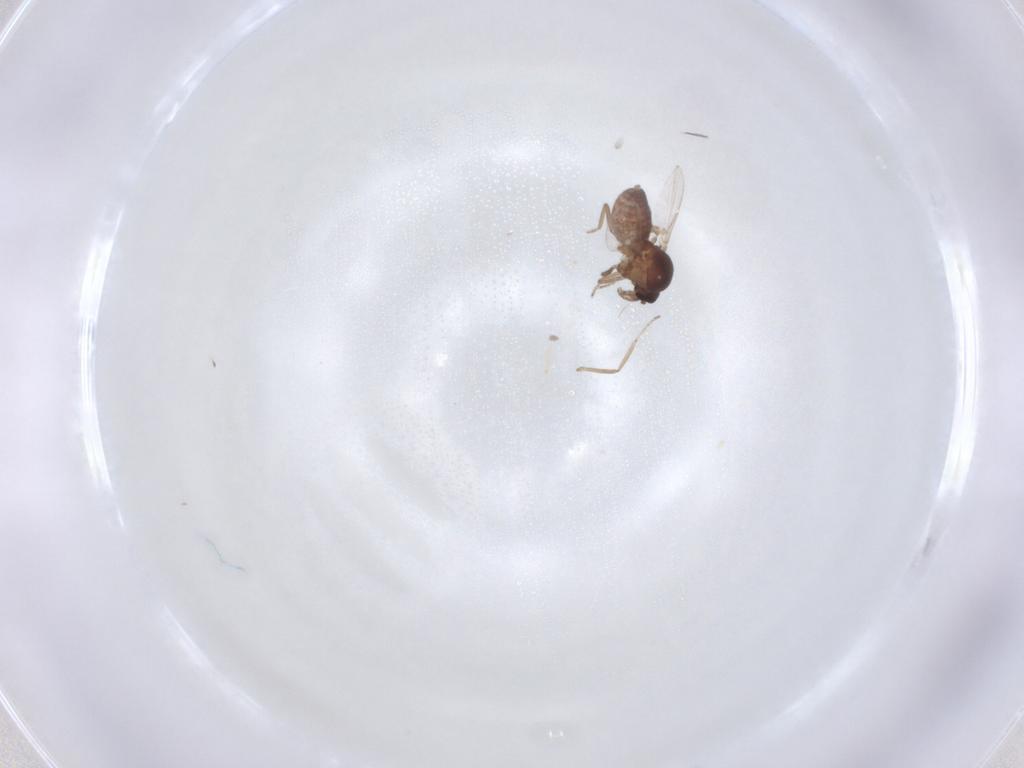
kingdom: Animalia
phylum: Arthropoda
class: Insecta
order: Diptera
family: Ceratopogonidae
